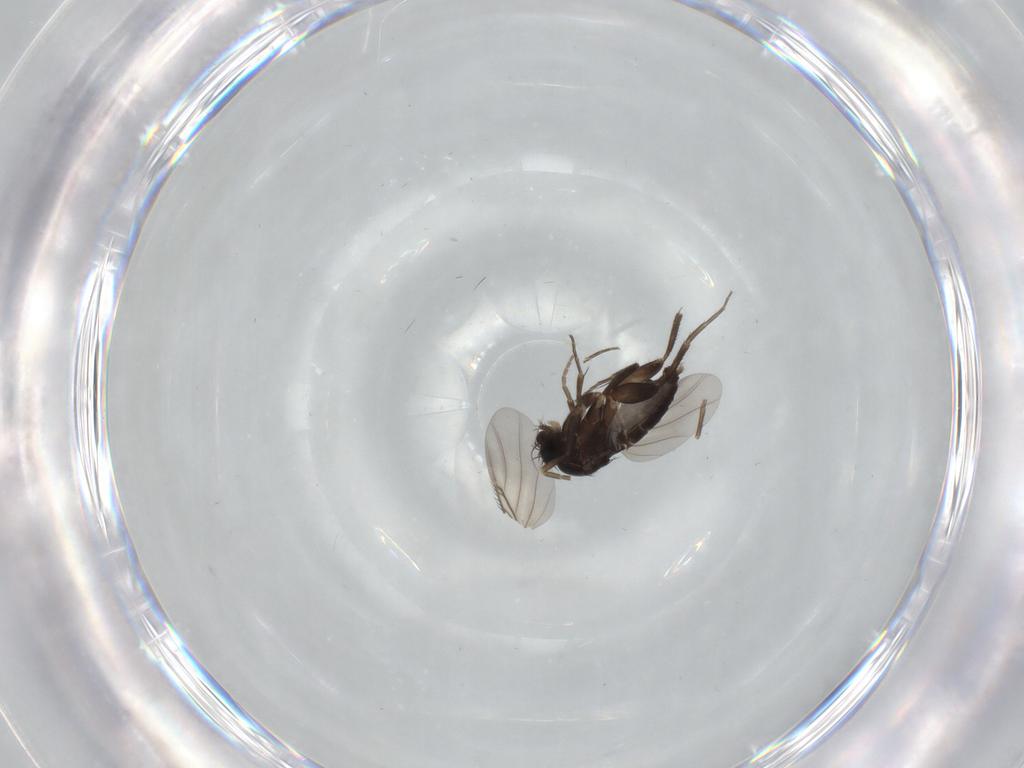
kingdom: Animalia
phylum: Arthropoda
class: Insecta
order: Diptera
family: Phoridae
